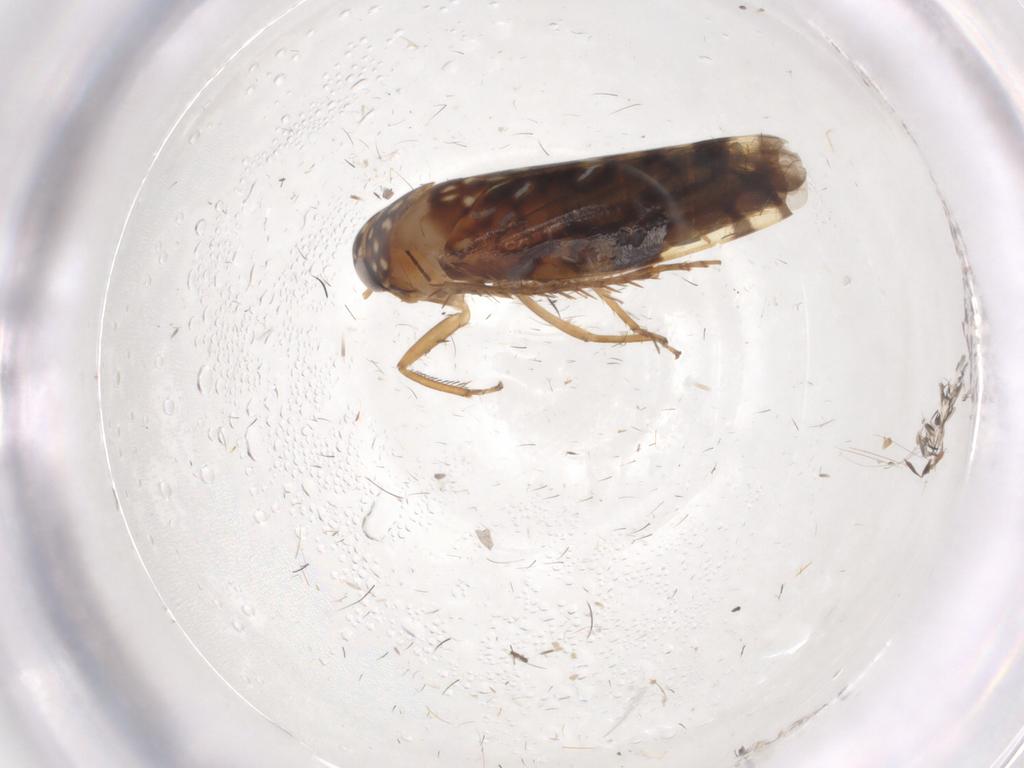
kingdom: Animalia
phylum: Arthropoda
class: Insecta
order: Hemiptera
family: Cicadellidae
